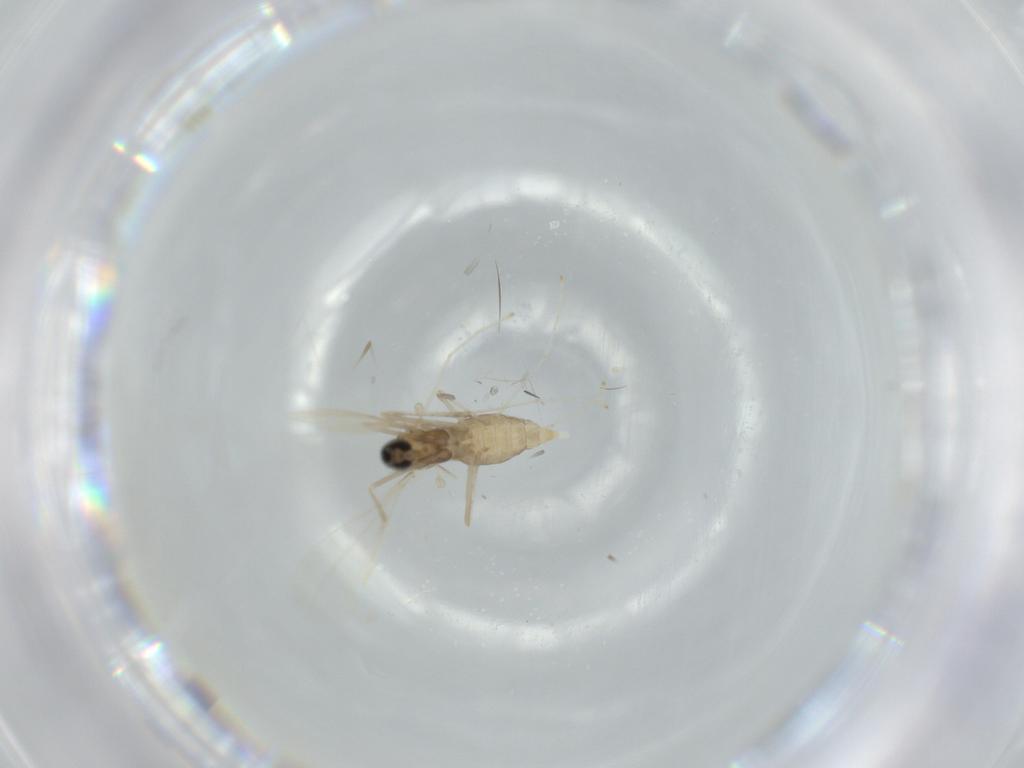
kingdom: Animalia
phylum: Arthropoda
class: Insecta
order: Diptera
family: Cecidomyiidae
